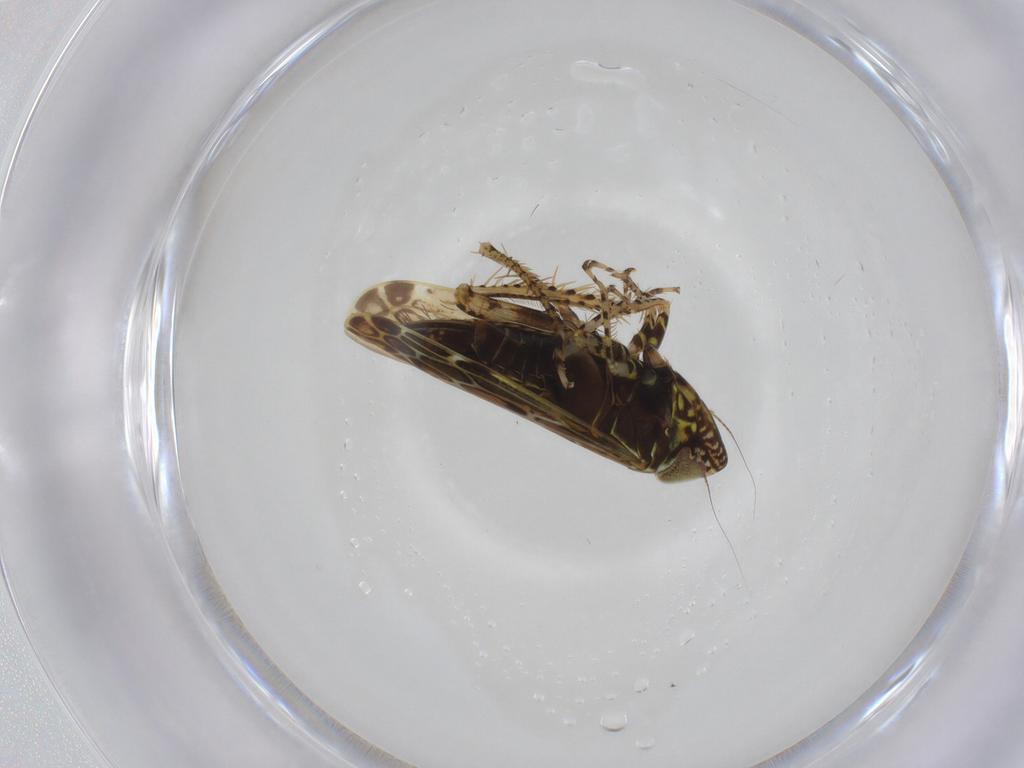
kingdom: Animalia
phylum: Arthropoda
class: Insecta
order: Hemiptera
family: Cicadellidae
